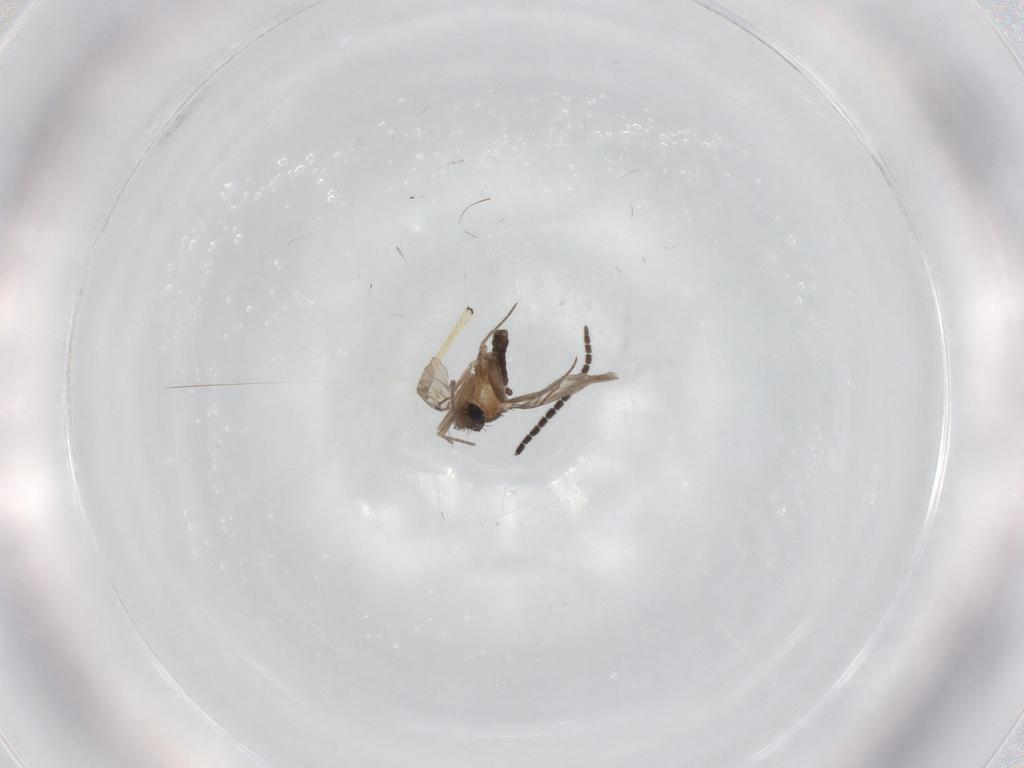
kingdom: Animalia
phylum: Arthropoda
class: Insecta
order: Diptera
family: Chironomidae
